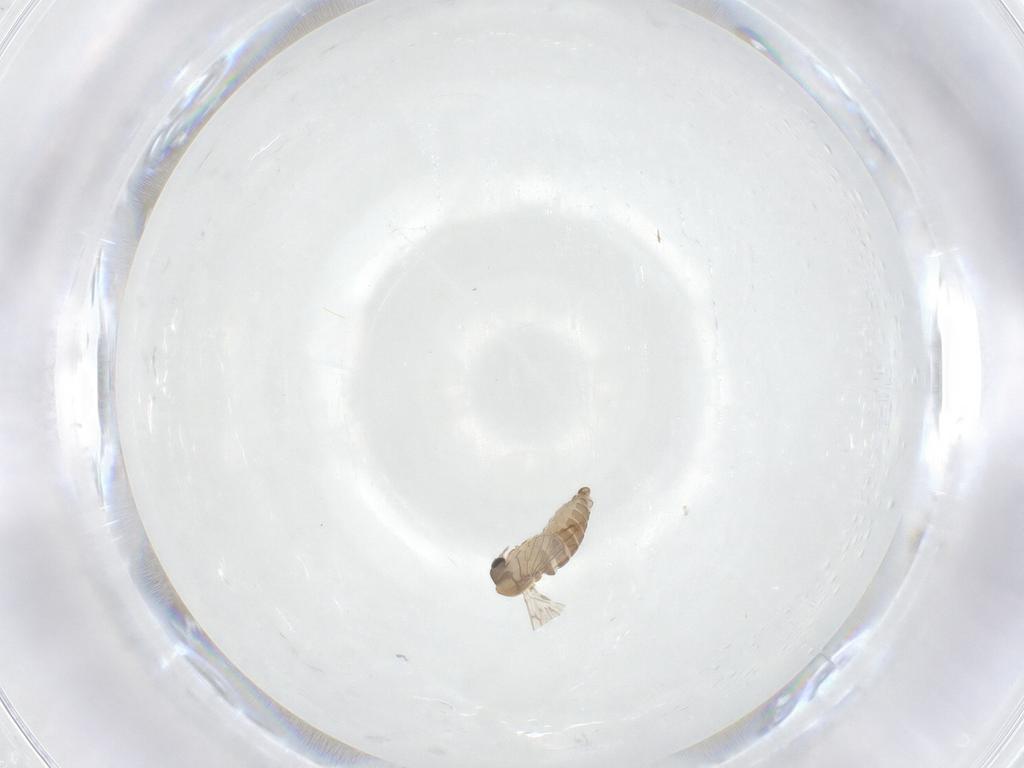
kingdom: Animalia
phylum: Arthropoda
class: Insecta
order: Diptera
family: Psychodidae
